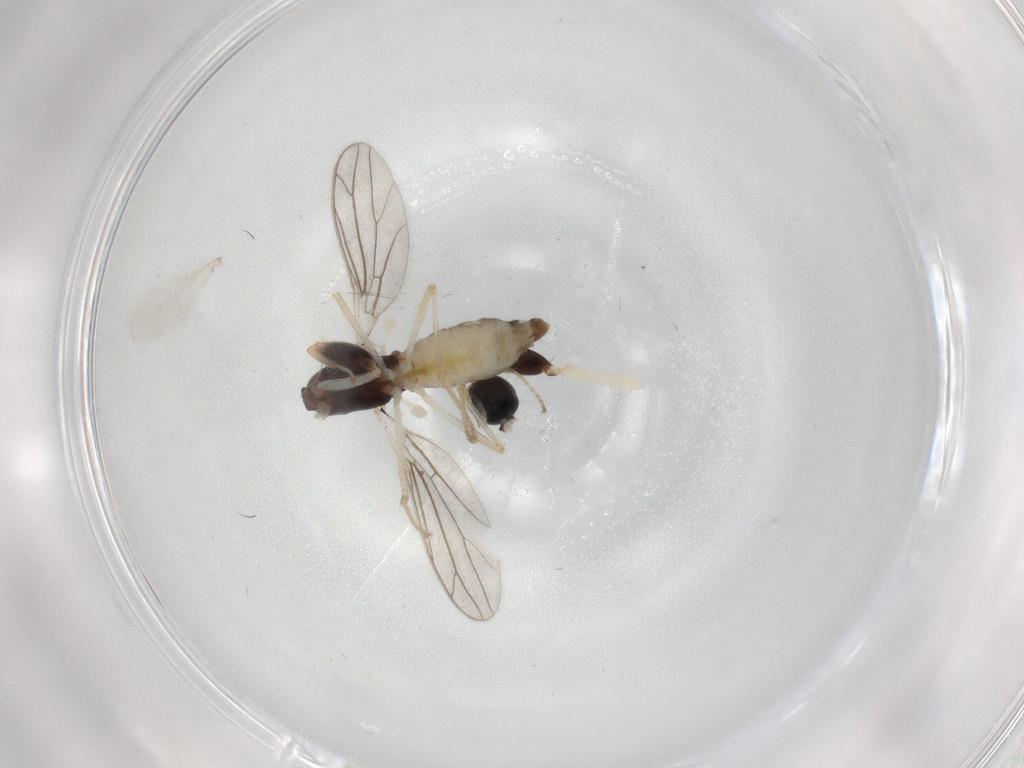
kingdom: Animalia
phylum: Arthropoda
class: Insecta
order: Diptera
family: Empididae
